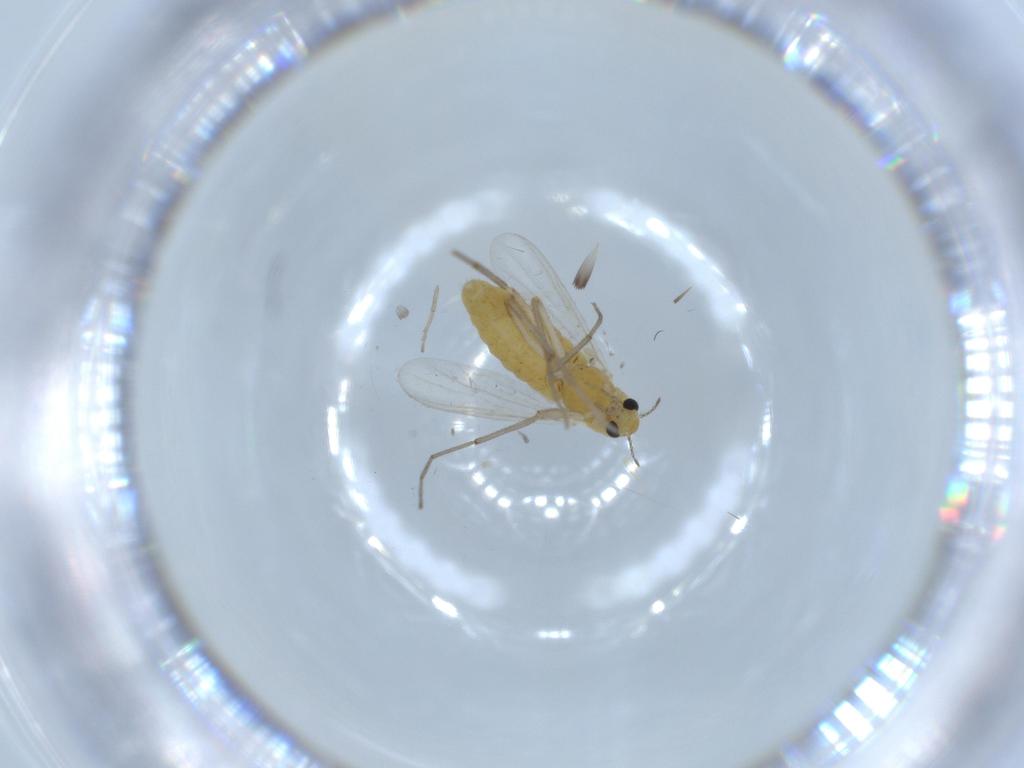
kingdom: Animalia
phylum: Arthropoda
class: Insecta
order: Diptera
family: Chironomidae
